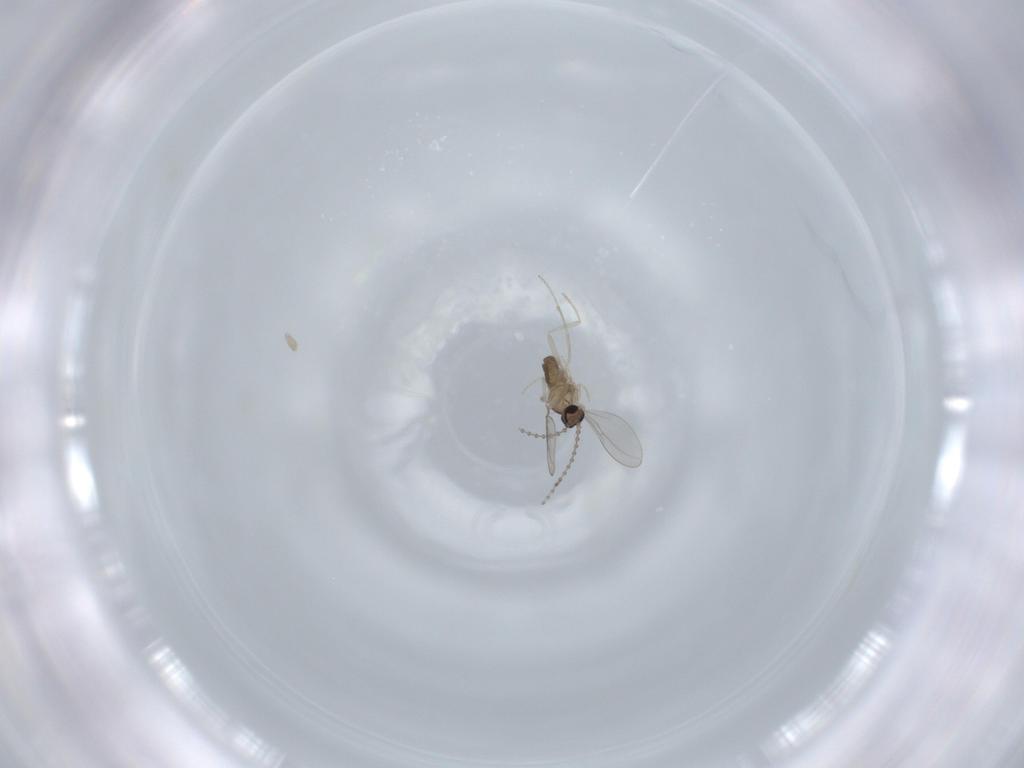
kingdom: Animalia
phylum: Arthropoda
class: Insecta
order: Diptera
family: Cecidomyiidae
